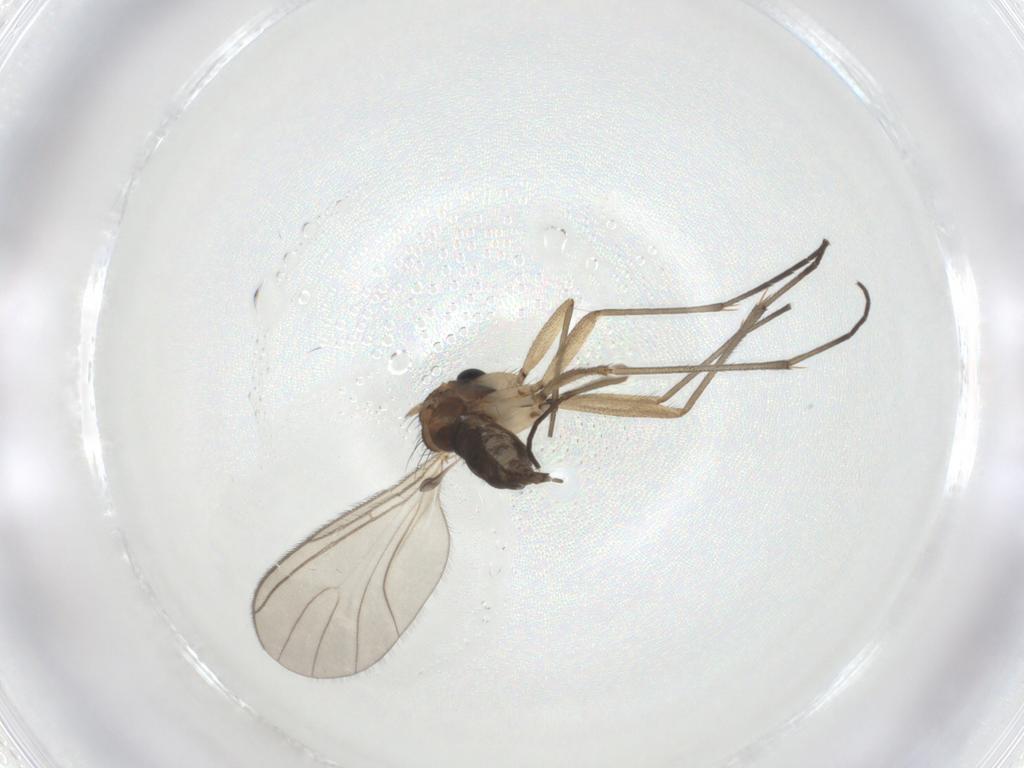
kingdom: Animalia
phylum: Arthropoda
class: Insecta
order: Diptera
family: Sciaridae
